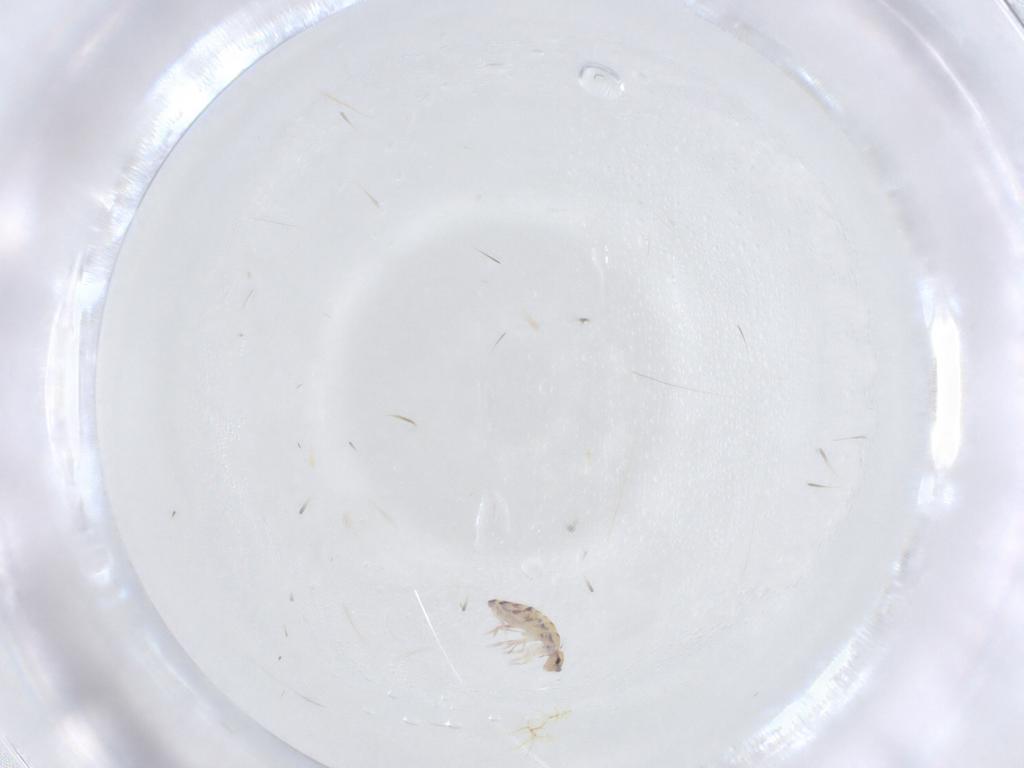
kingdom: Animalia
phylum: Arthropoda
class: Collembola
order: Entomobryomorpha
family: Entomobryidae
